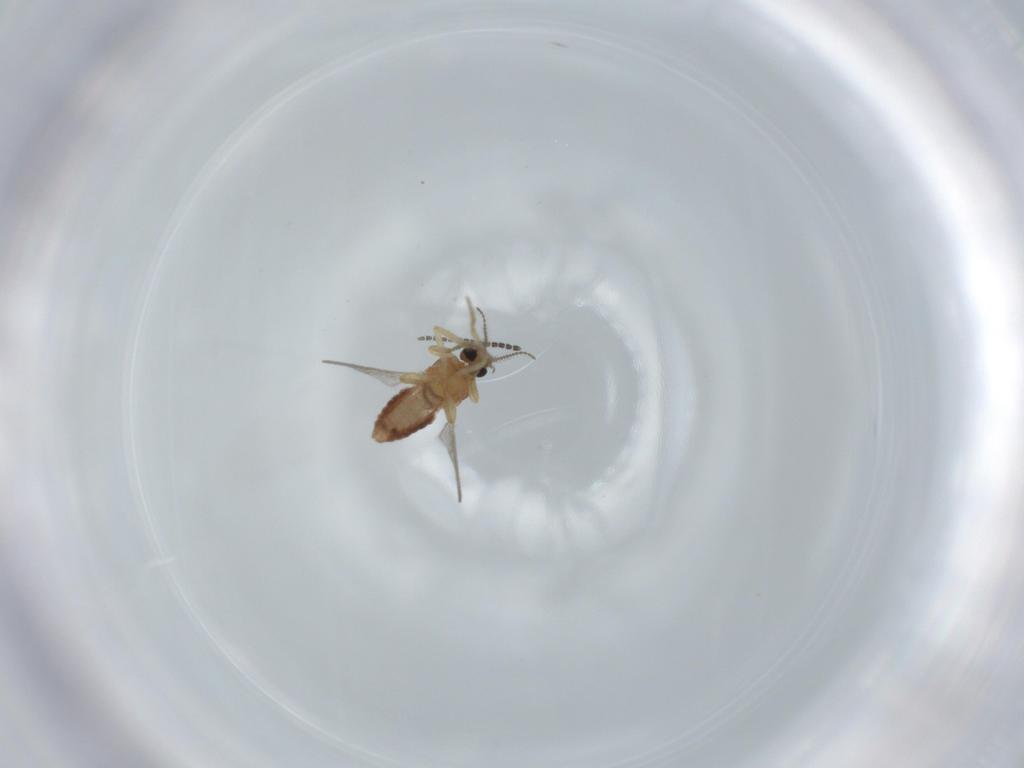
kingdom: Animalia
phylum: Arthropoda
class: Insecta
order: Diptera
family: Ceratopogonidae
